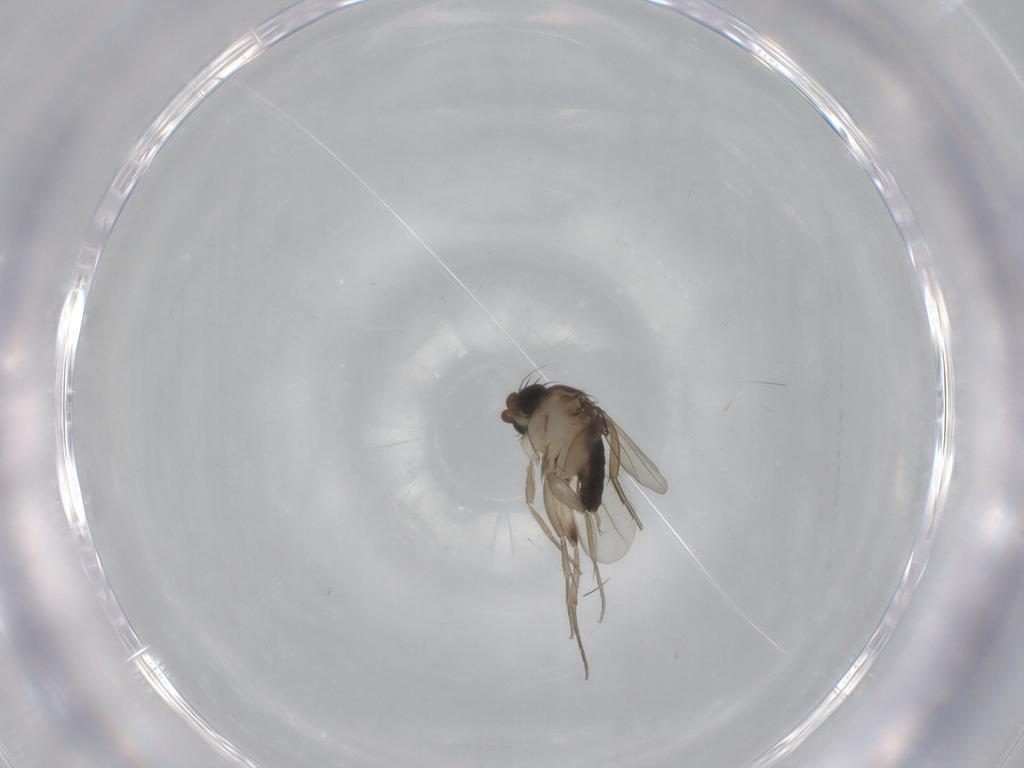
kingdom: Animalia
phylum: Arthropoda
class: Insecta
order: Diptera
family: Phoridae
